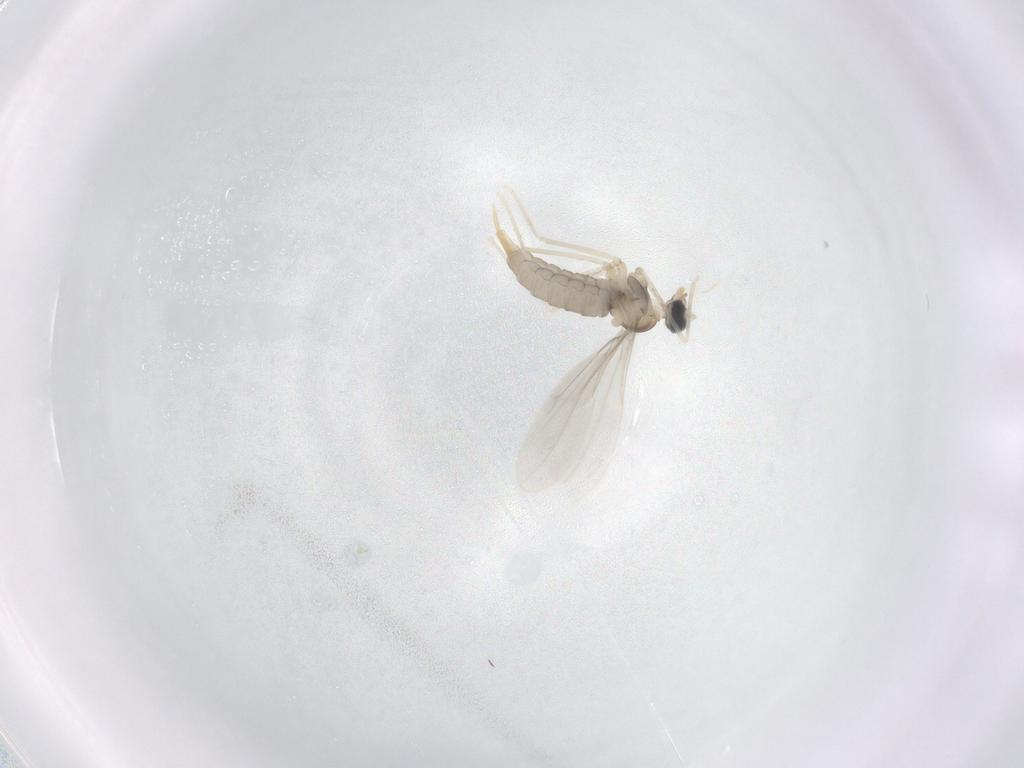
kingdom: Animalia
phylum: Arthropoda
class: Insecta
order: Diptera
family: Cecidomyiidae
